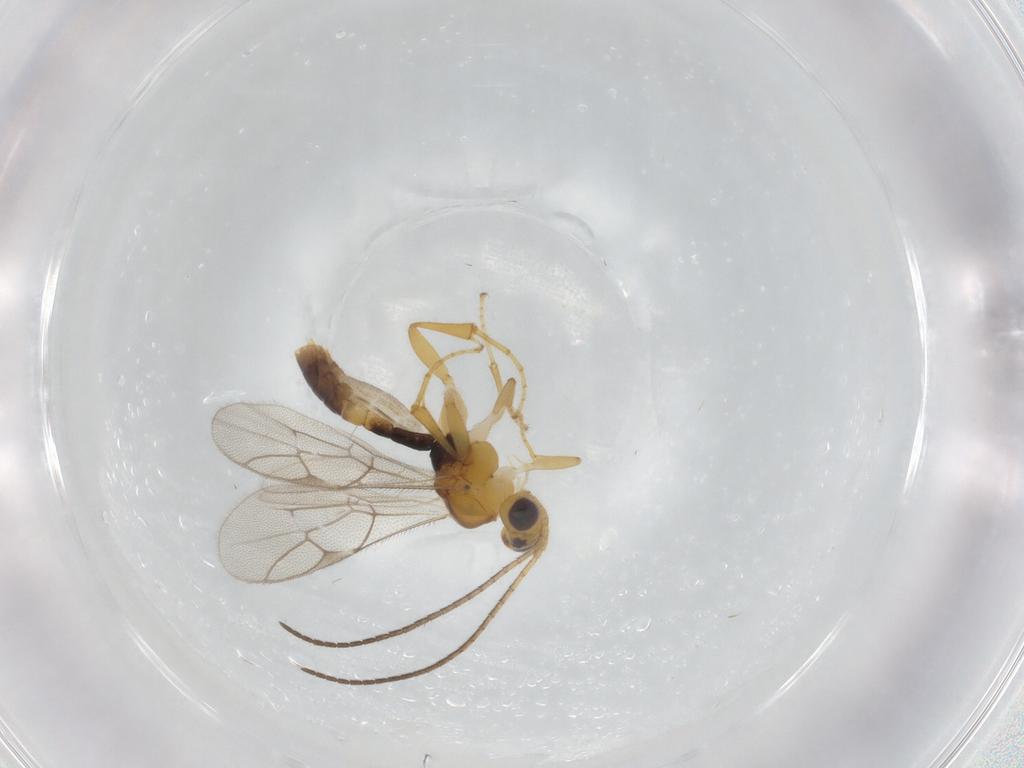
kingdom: Animalia
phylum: Arthropoda
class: Insecta
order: Hymenoptera
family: Ichneumonidae
